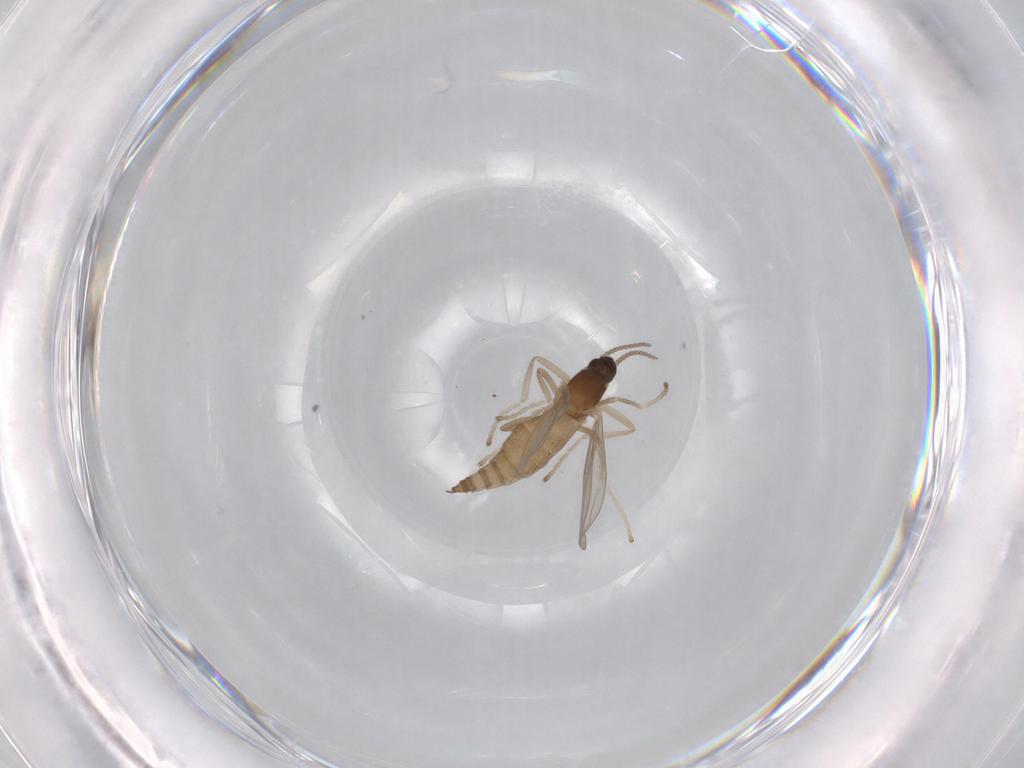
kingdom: Animalia
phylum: Arthropoda
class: Insecta
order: Diptera
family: Cecidomyiidae
